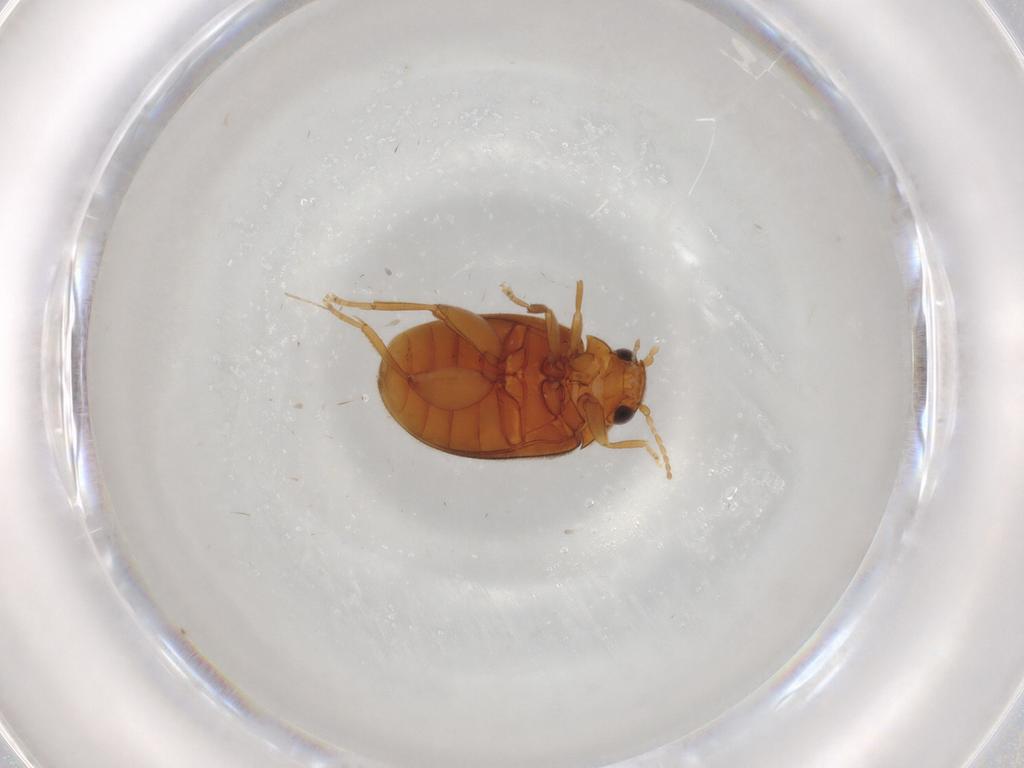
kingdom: Animalia
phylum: Arthropoda
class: Insecta
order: Coleoptera
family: Scirtidae
